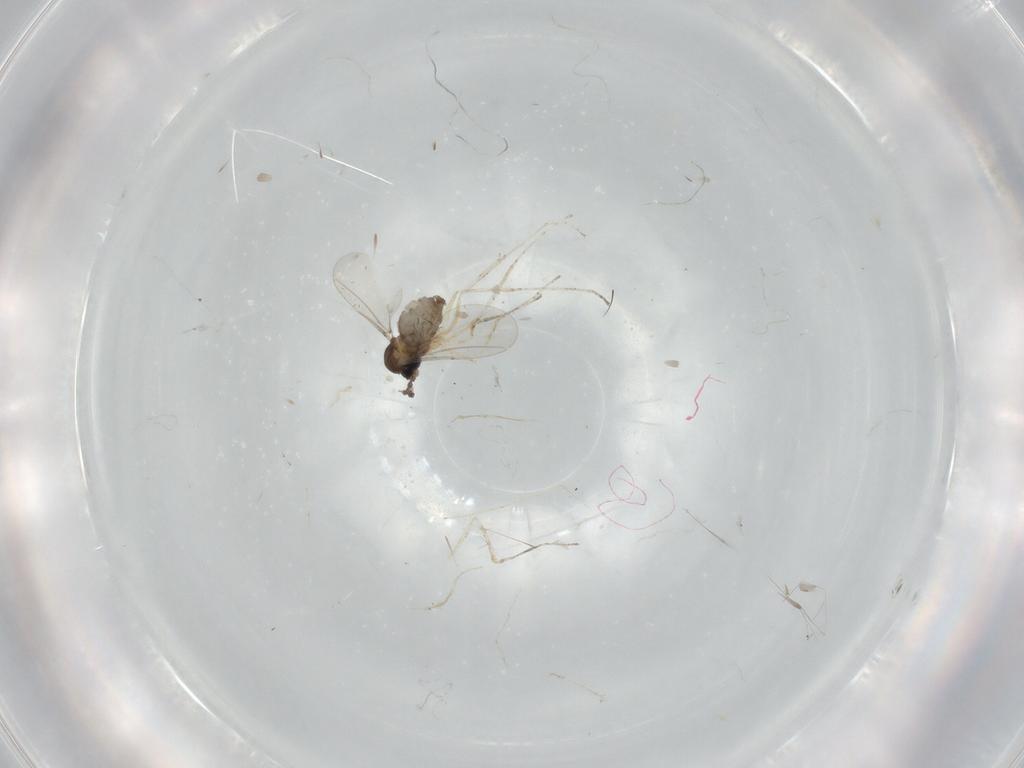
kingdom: Animalia
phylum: Arthropoda
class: Insecta
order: Diptera
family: Cecidomyiidae
